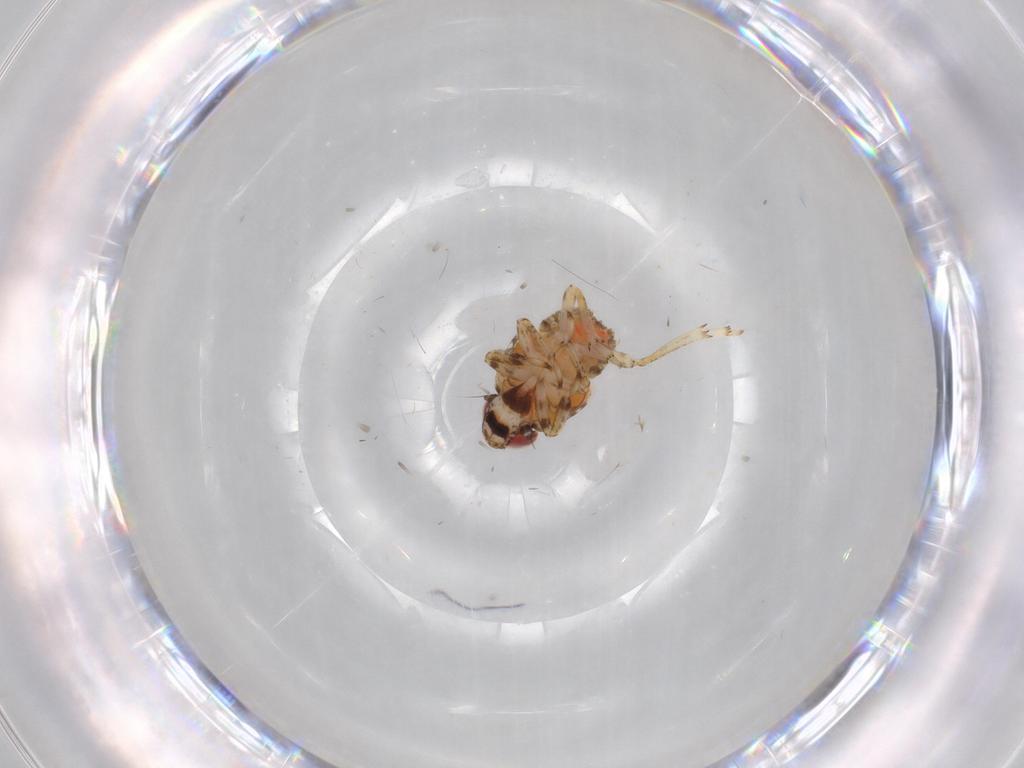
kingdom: Animalia
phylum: Arthropoda
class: Insecta
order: Hemiptera
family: Issidae
